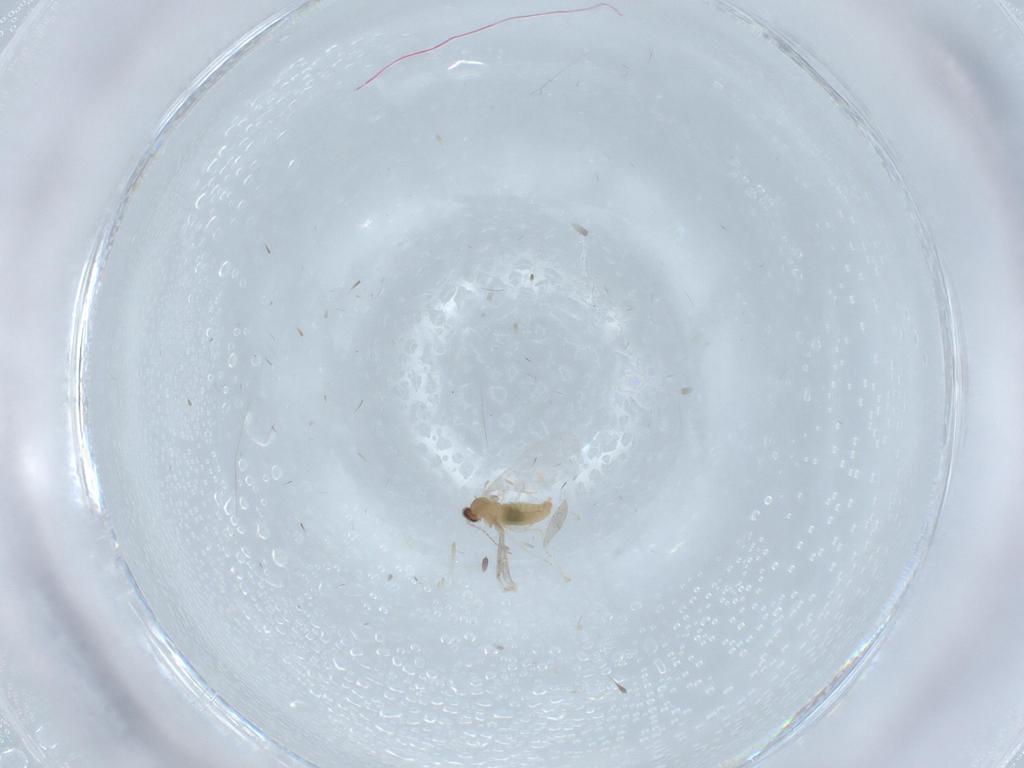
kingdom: Animalia
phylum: Arthropoda
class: Insecta
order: Diptera
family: Cecidomyiidae
